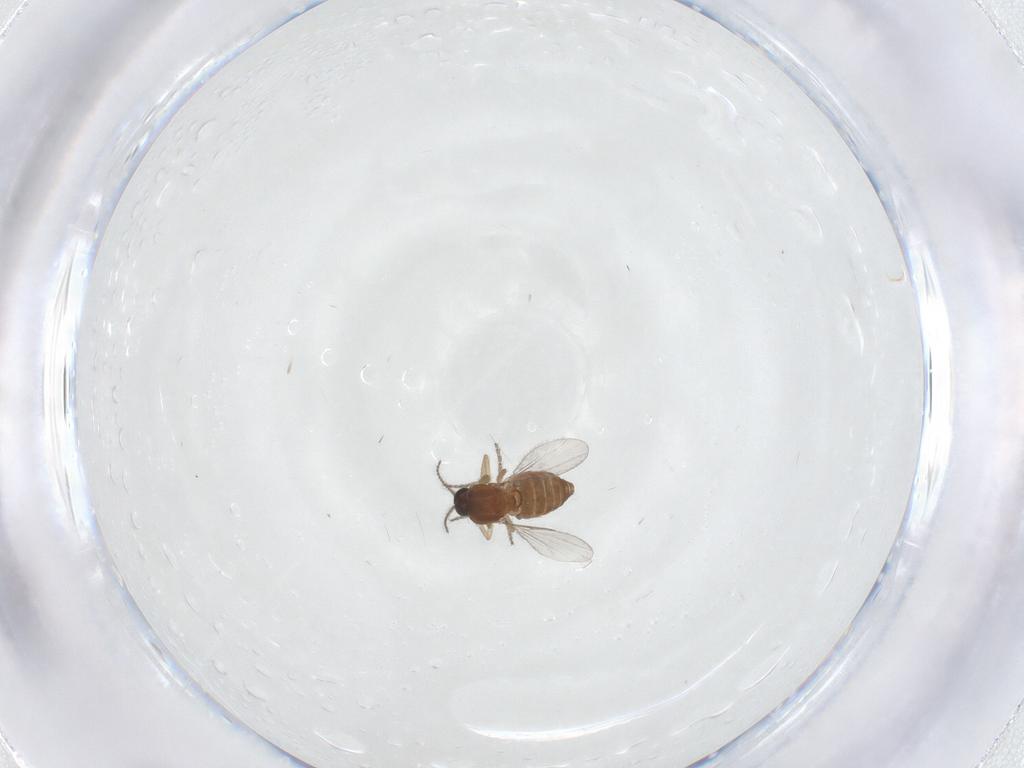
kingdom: Animalia
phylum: Arthropoda
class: Insecta
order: Diptera
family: Ceratopogonidae
